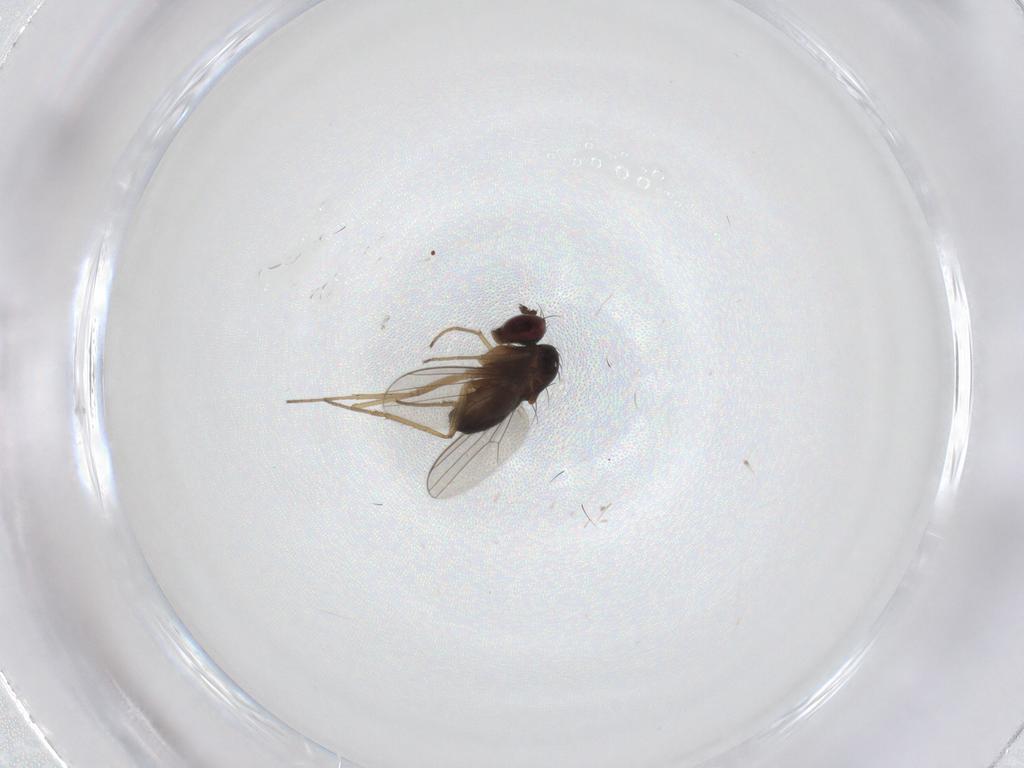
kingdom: Animalia
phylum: Arthropoda
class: Insecta
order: Diptera
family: Dolichopodidae
